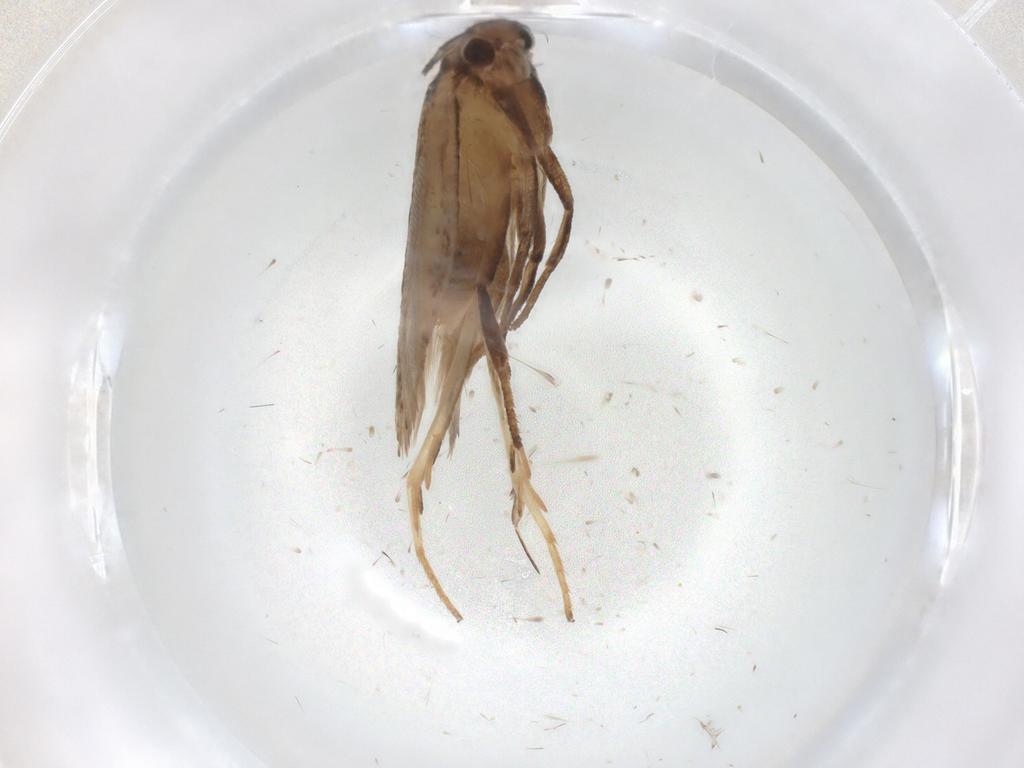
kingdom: Animalia
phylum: Arthropoda
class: Insecta
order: Lepidoptera
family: Gelechiidae
